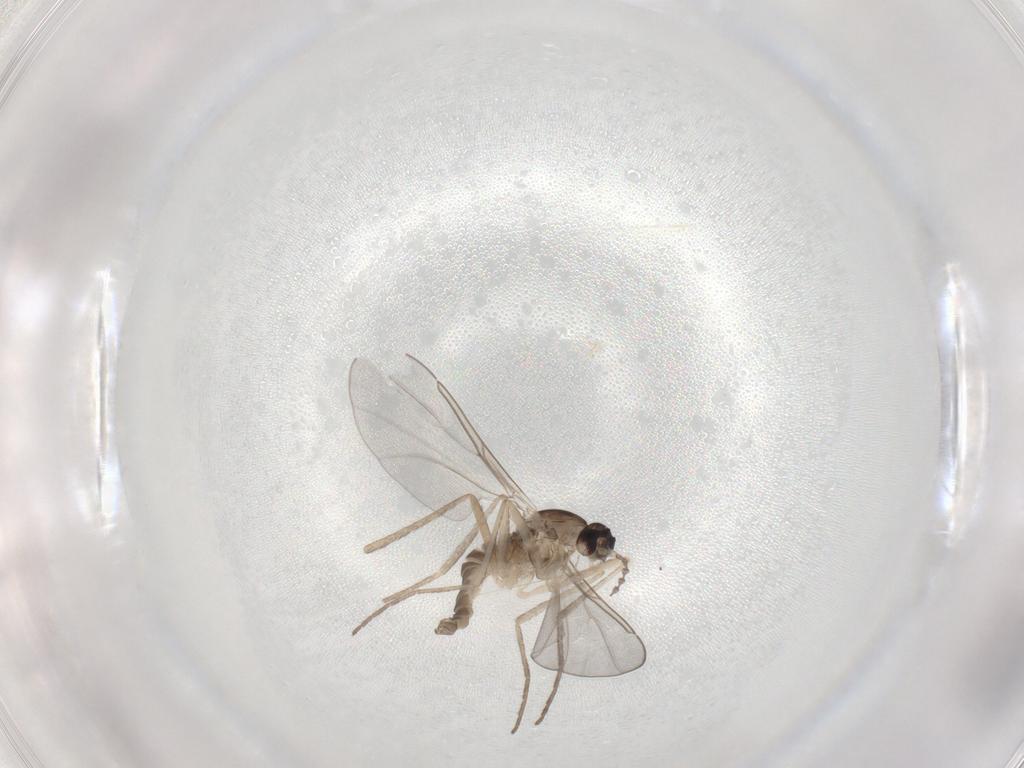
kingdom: Animalia
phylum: Arthropoda
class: Insecta
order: Diptera
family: Cecidomyiidae
